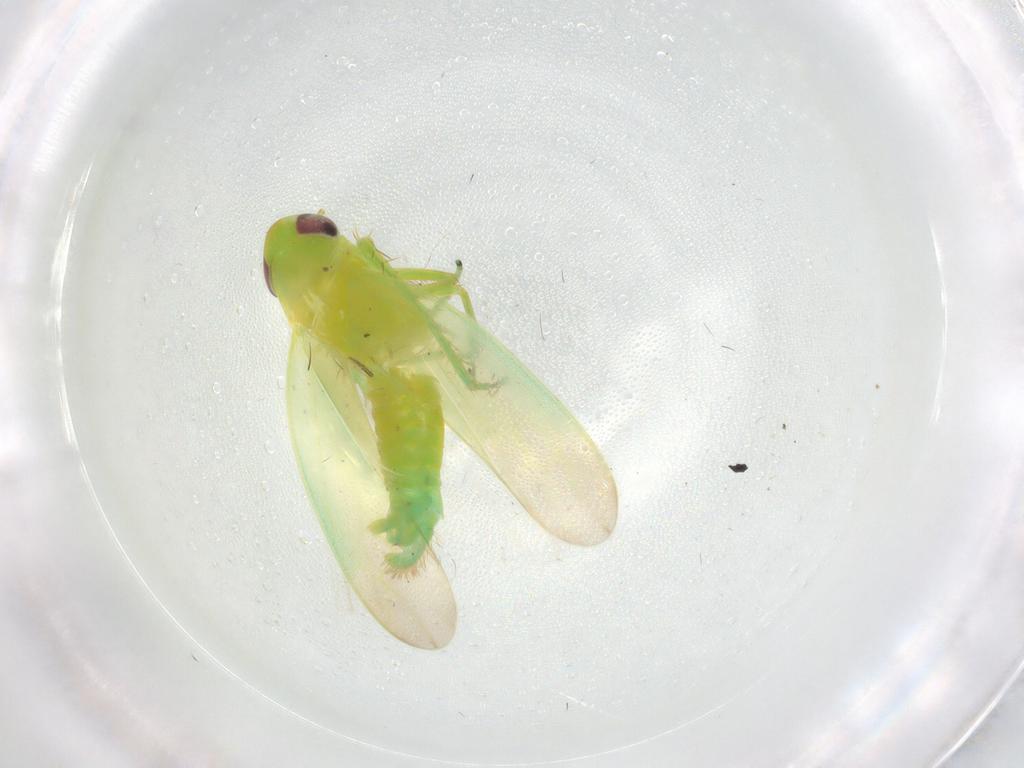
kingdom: Animalia
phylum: Arthropoda
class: Insecta
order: Hemiptera
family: Cicadellidae
